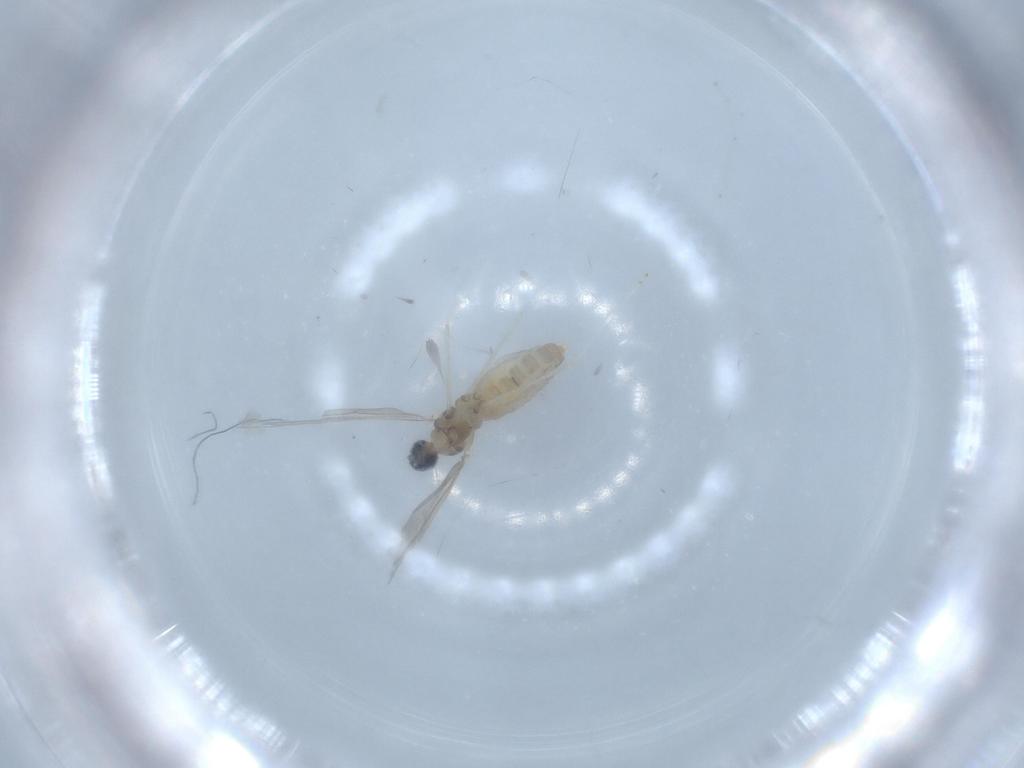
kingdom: Animalia
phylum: Arthropoda
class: Insecta
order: Diptera
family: Cecidomyiidae
